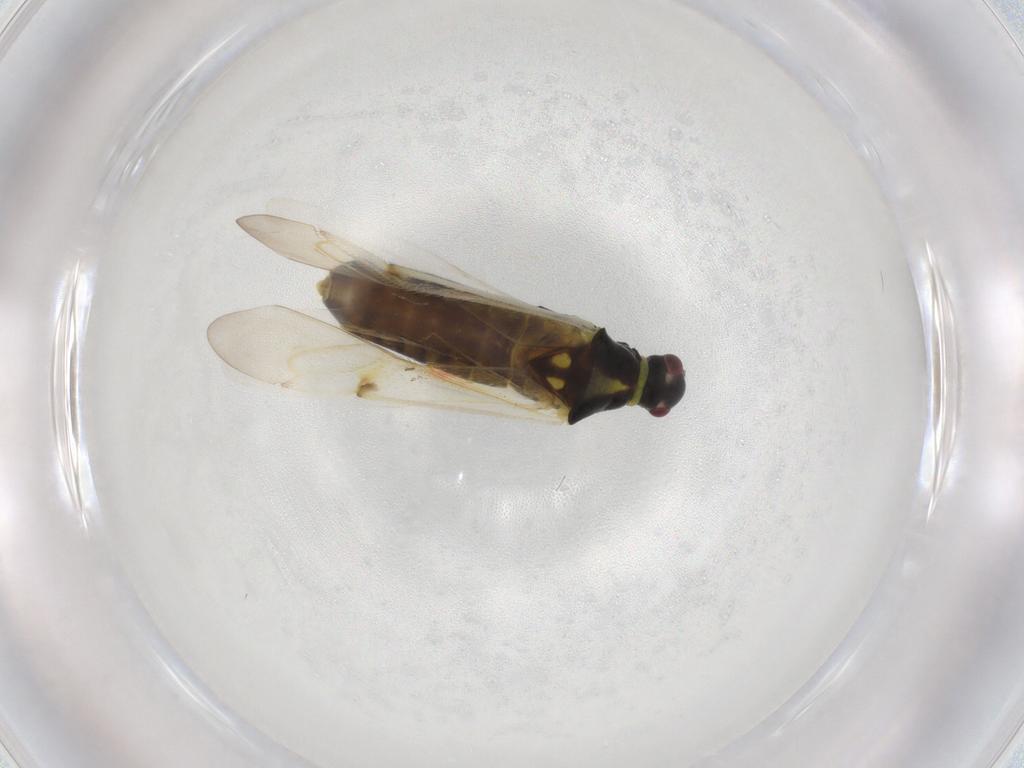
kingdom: Animalia
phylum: Arthropoda
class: Insecta
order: Hemiptera
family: Miridae
